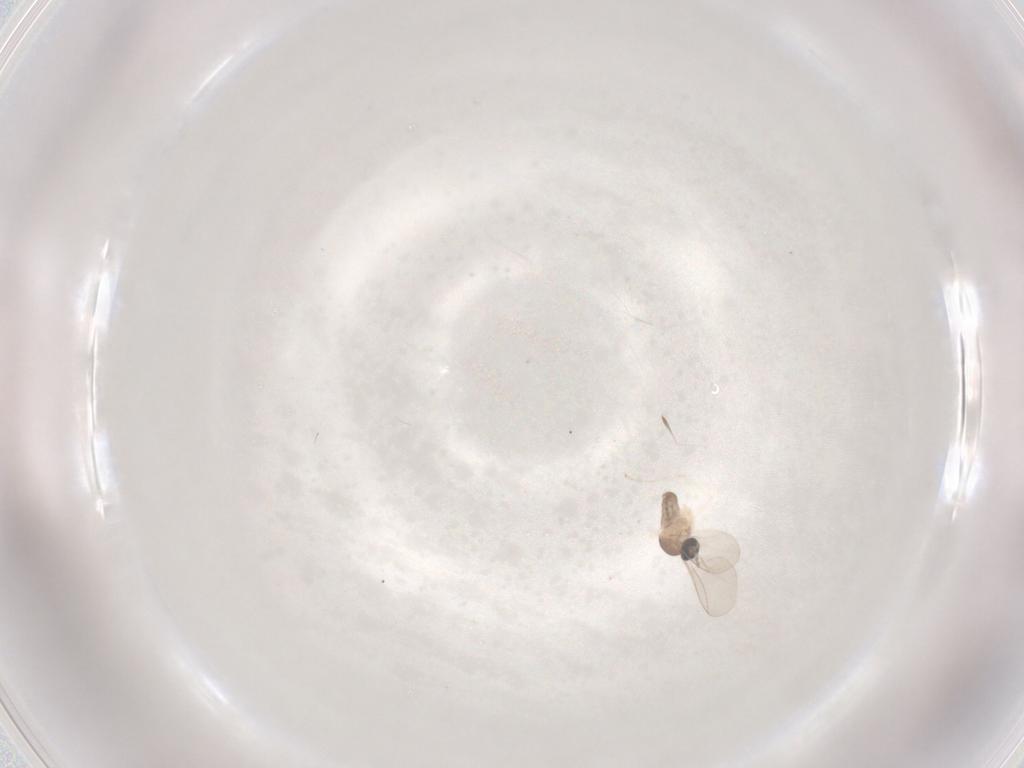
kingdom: Animalia
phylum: Arthropoda
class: Insecta
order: Diptera
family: Cecidomyiidae
